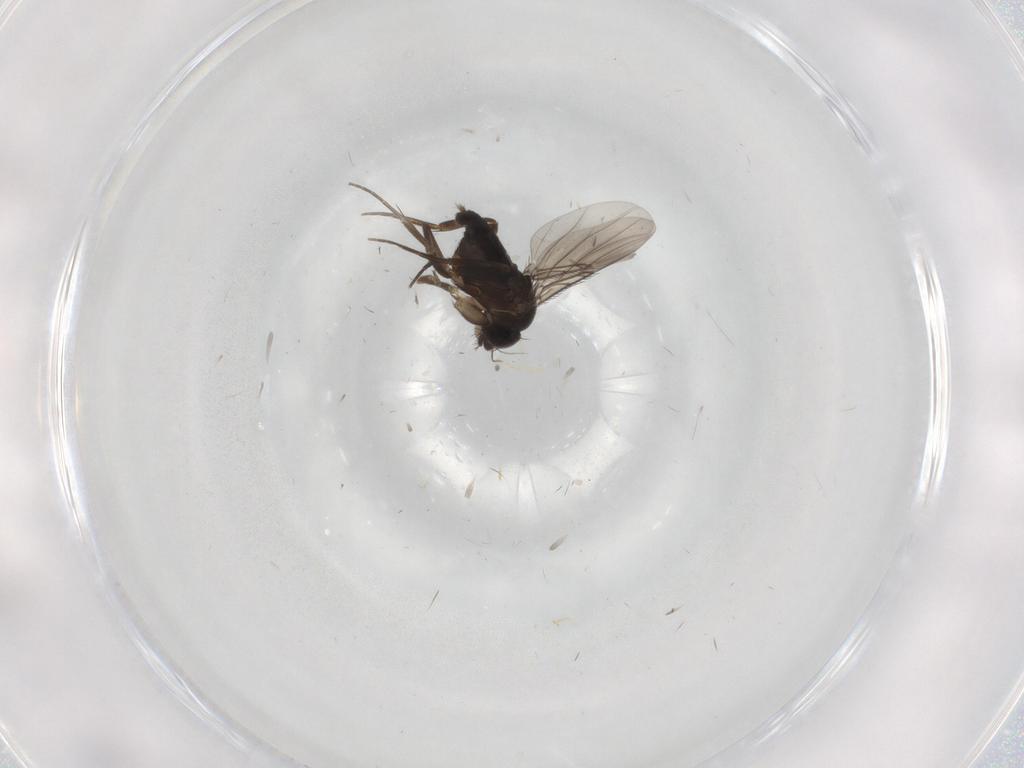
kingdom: Animalia
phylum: Arthropoda
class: Insecta
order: Diptera
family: Phoridae
